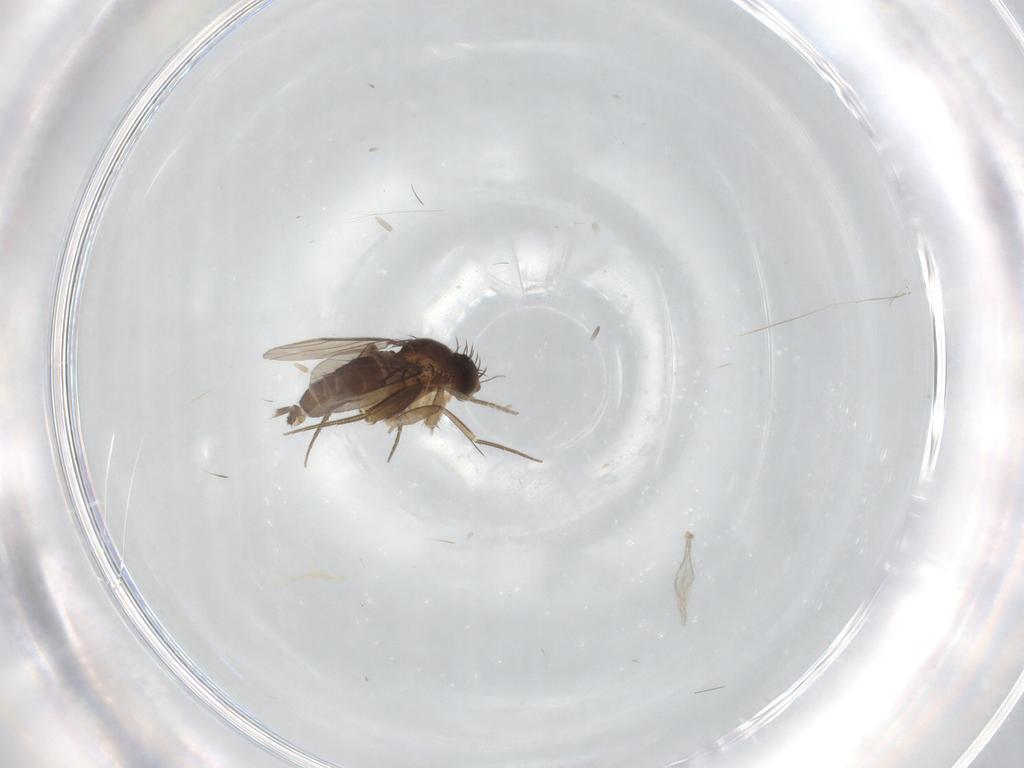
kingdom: Animalia
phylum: Arthropoda
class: Insecta
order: Diptera
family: Phoridae
